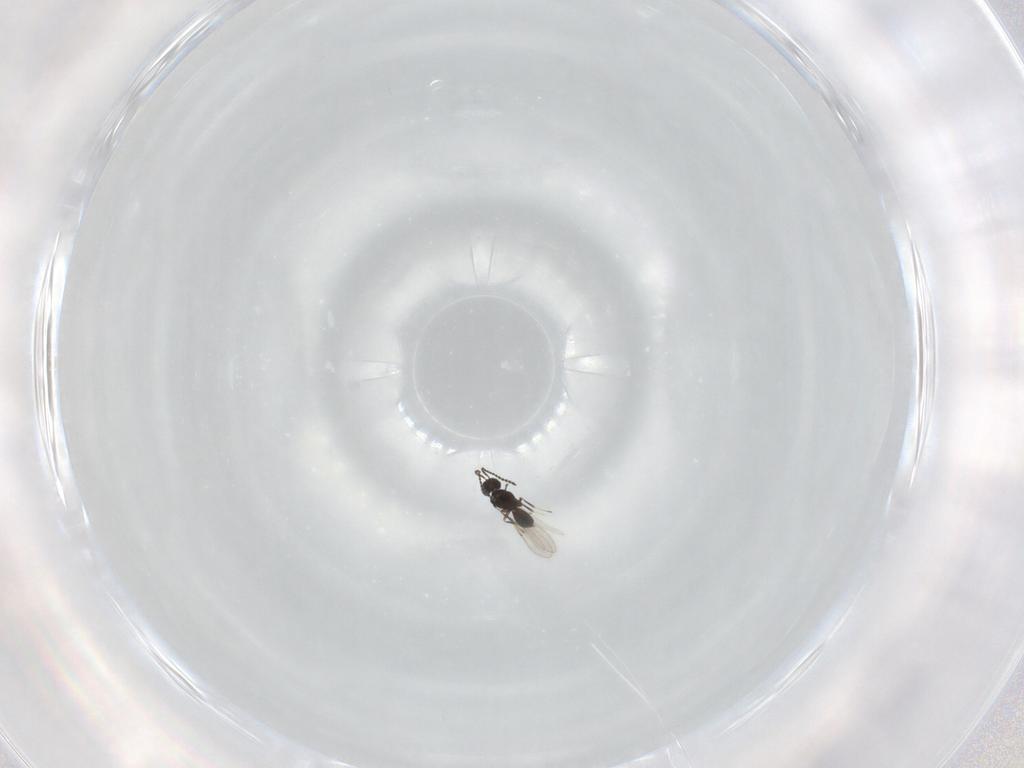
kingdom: Animalia
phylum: Arthropoda
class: Insecta
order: Hymenoptera
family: Scelionidae
